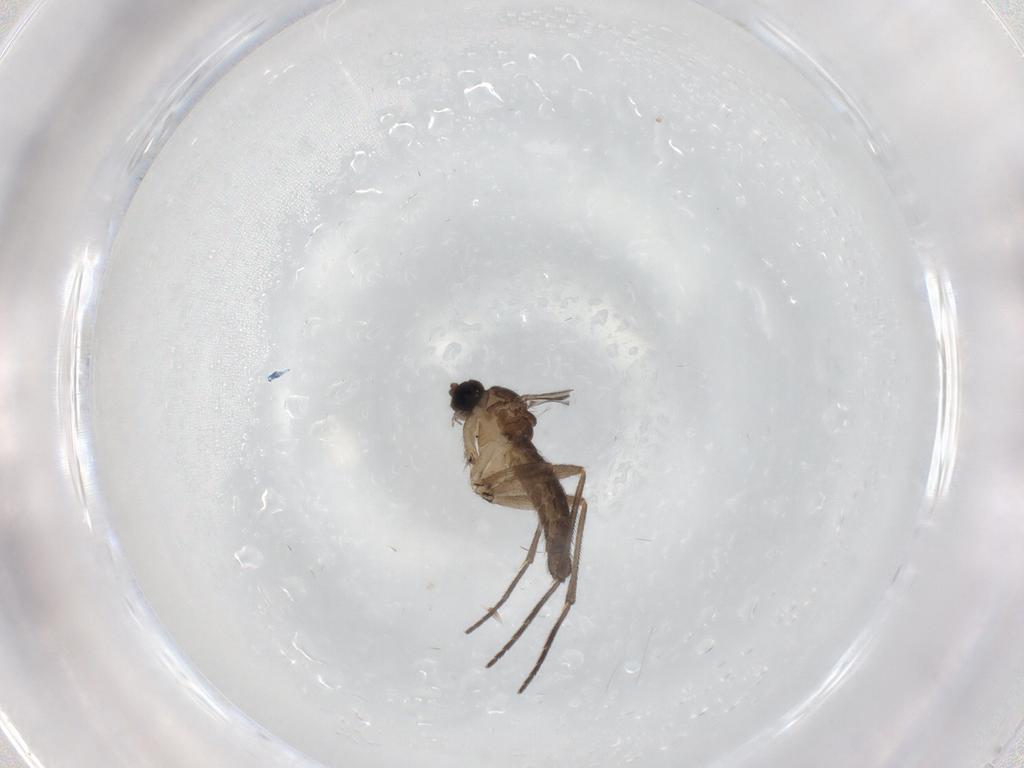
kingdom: Animalia
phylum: Arthropoda
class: Insecta
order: Diptera
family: Sciaridae
